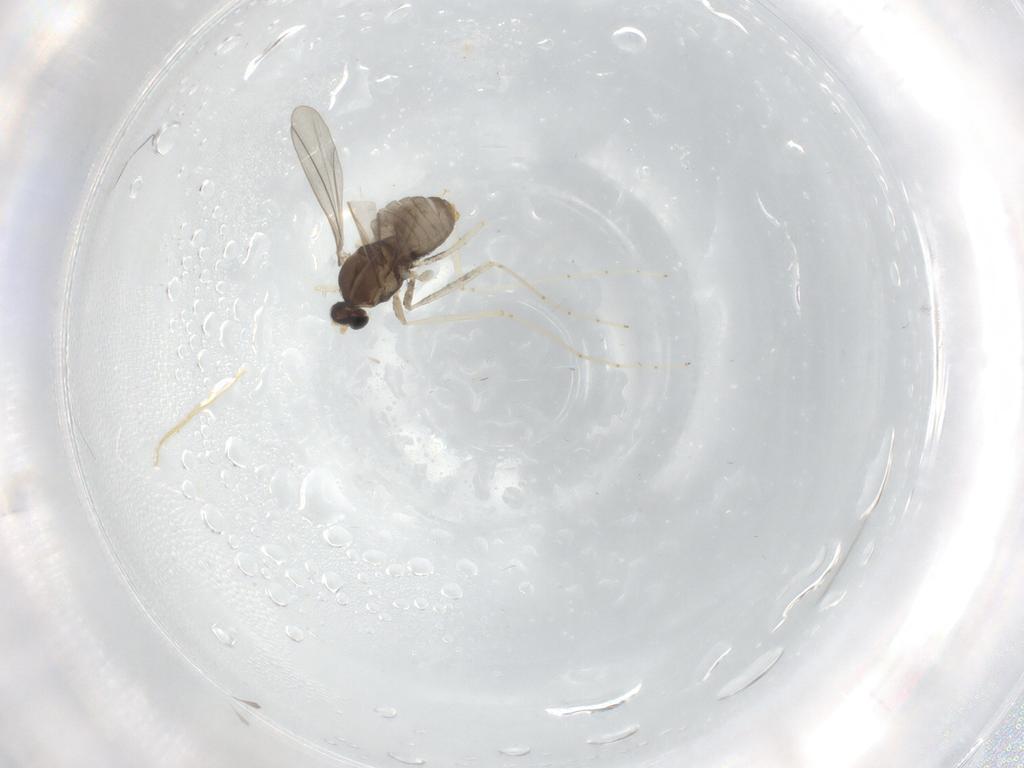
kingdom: Animalia
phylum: Arthropoda
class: Insecta
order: Diptera
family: Cecidomyiidae
